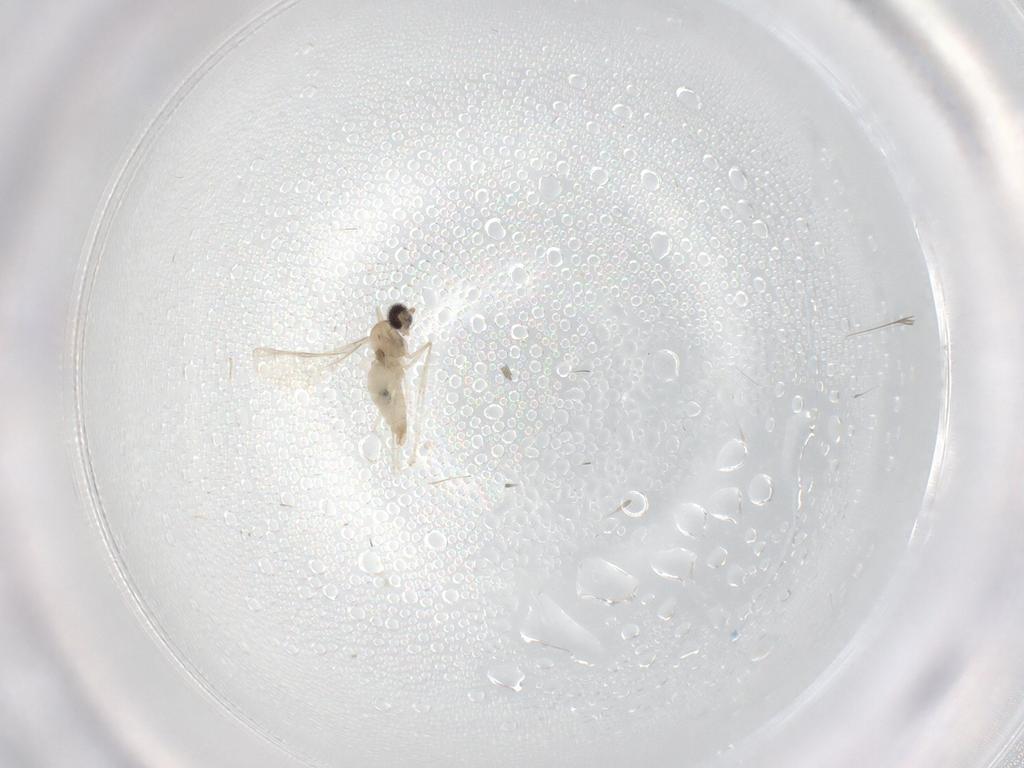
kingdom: Animalia
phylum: Arthropoda
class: Insecta
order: Diptera
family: Cecidomyiidae
